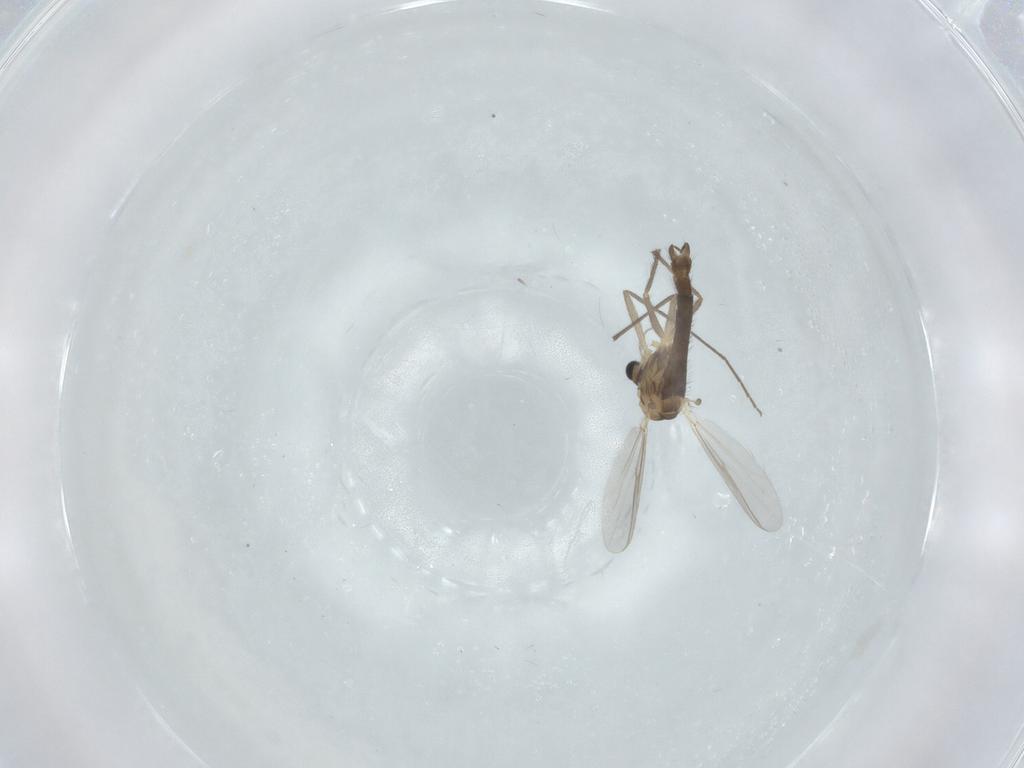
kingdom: Animalia
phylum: Arthropoda
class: Insecta
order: Diptera
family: Chironomidae
